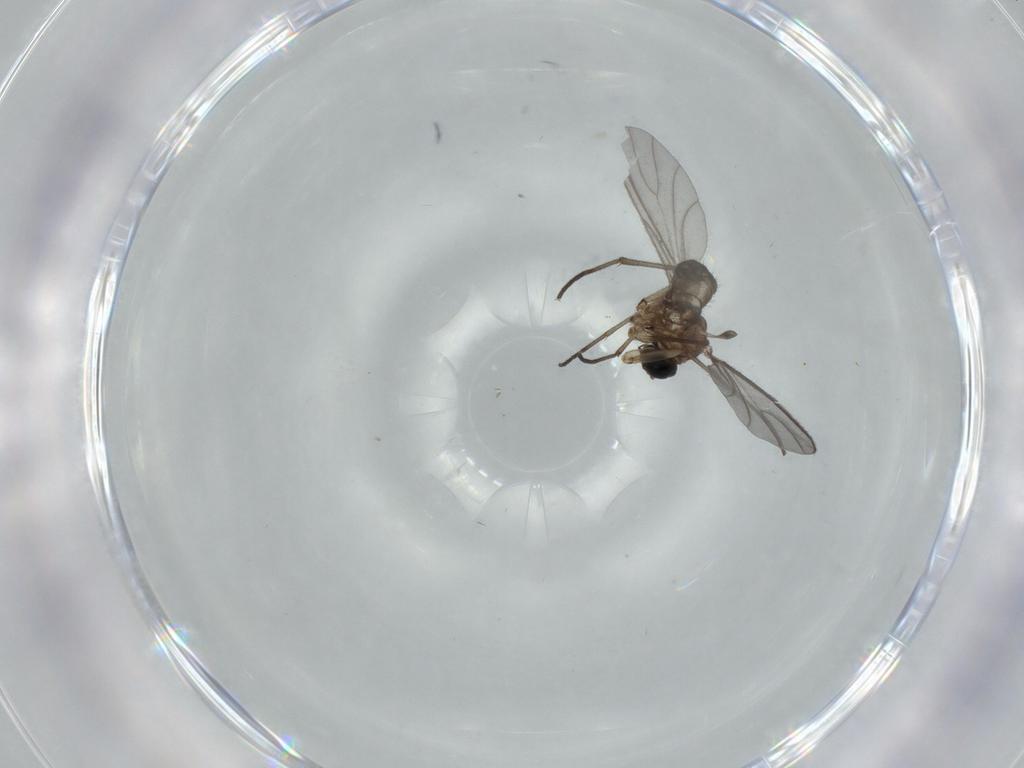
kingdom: Animalia
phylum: Arthropoda
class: Insecta
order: Diptera
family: Sciaridae
